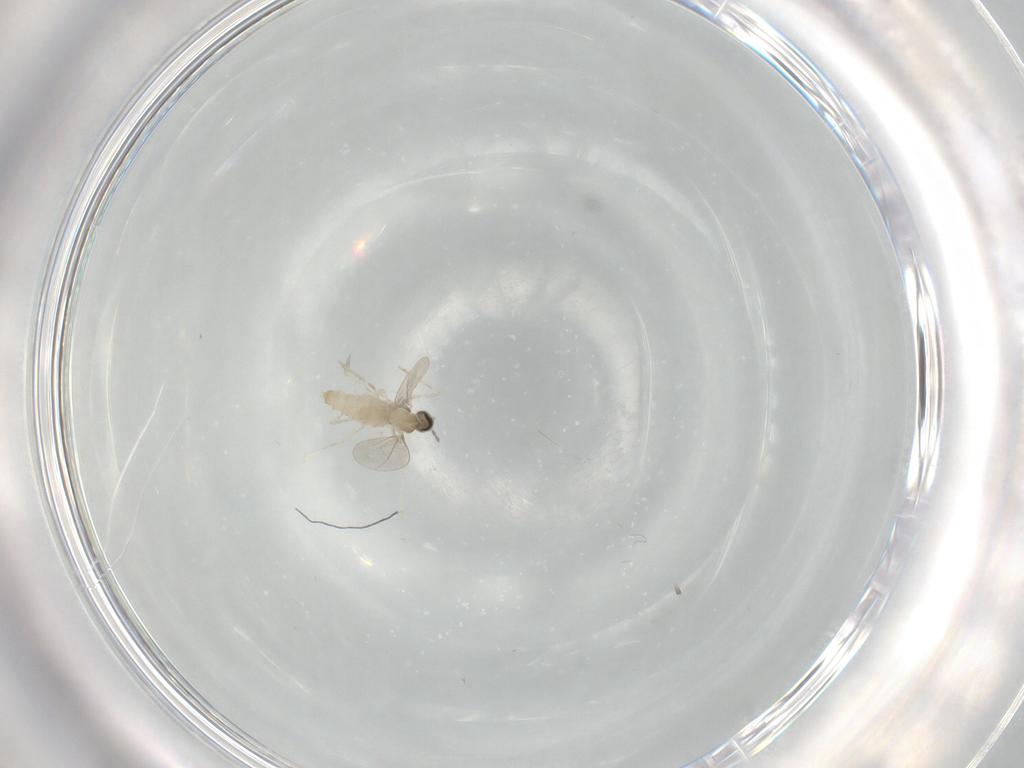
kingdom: Animalia
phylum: Arthropoda
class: Insecta
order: Diptera
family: Cecidomyiidae
